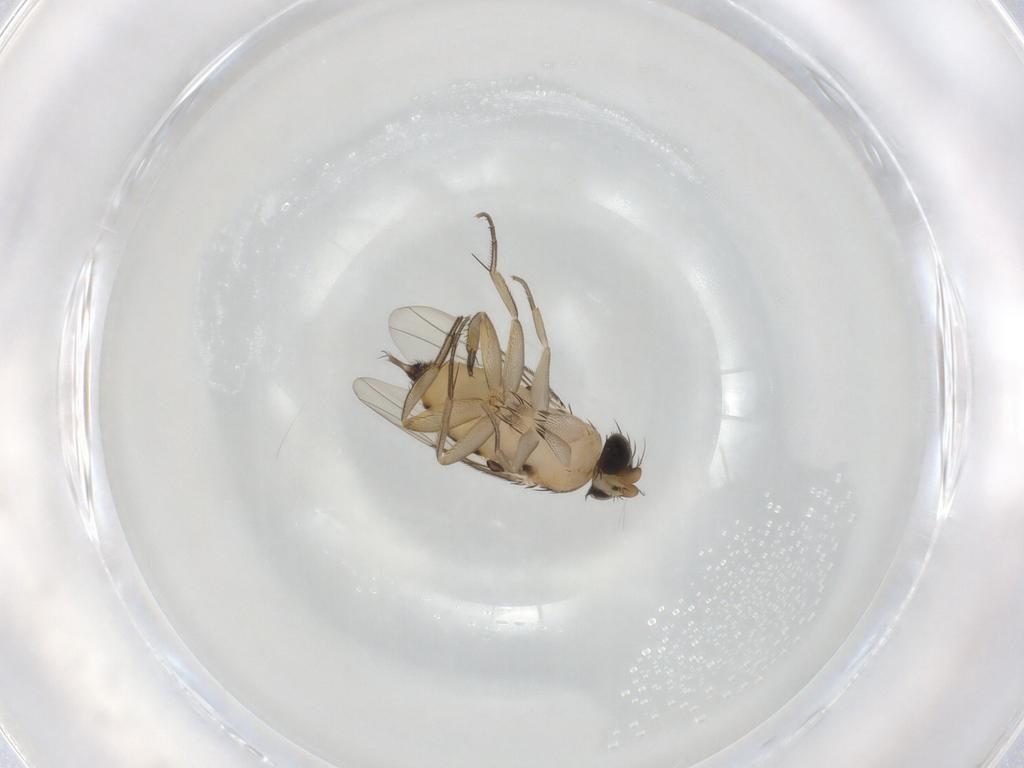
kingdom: Animalia
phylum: Arthropoda
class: Insecta
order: Diptera
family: Phoridae
